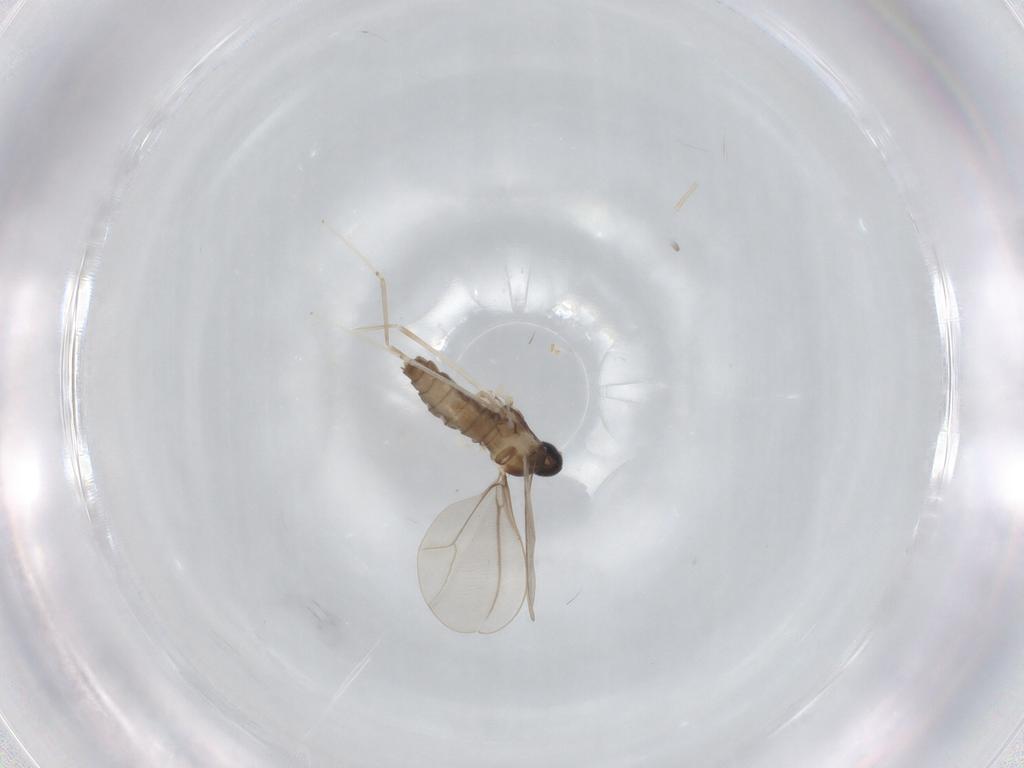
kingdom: Animalia
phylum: Arthropoda
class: Insecta
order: Diptera
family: Cecidomyiidae
